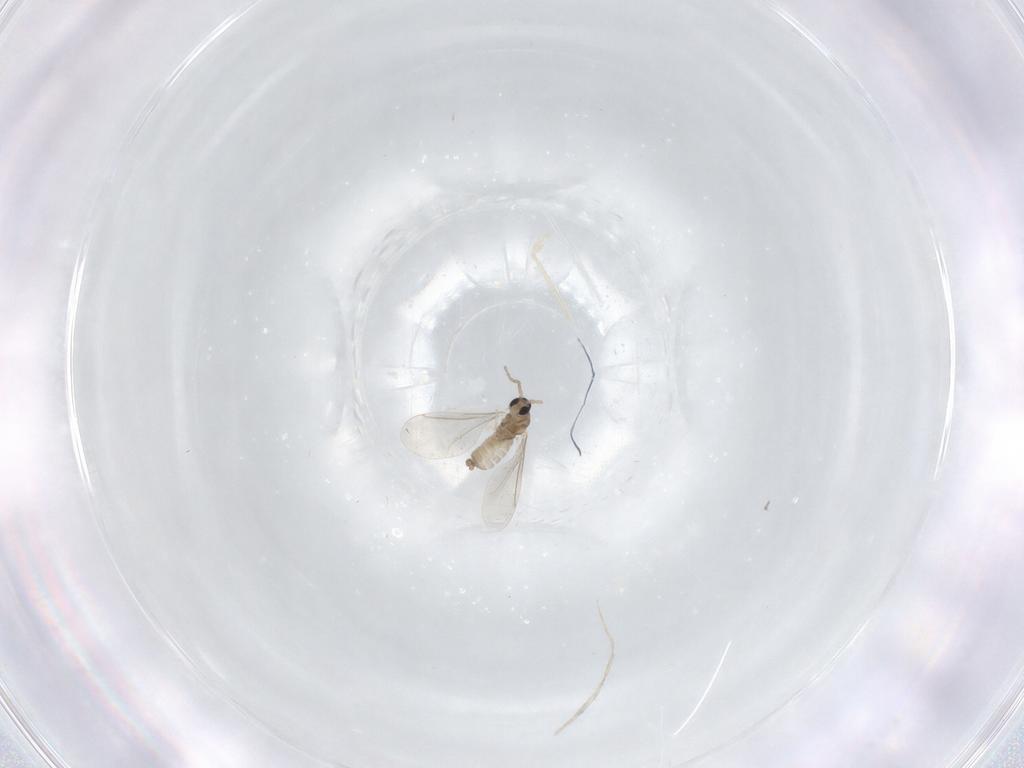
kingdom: Animalia
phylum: Arthropoda
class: Insecta
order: Diptera
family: Cecidomyiidae
